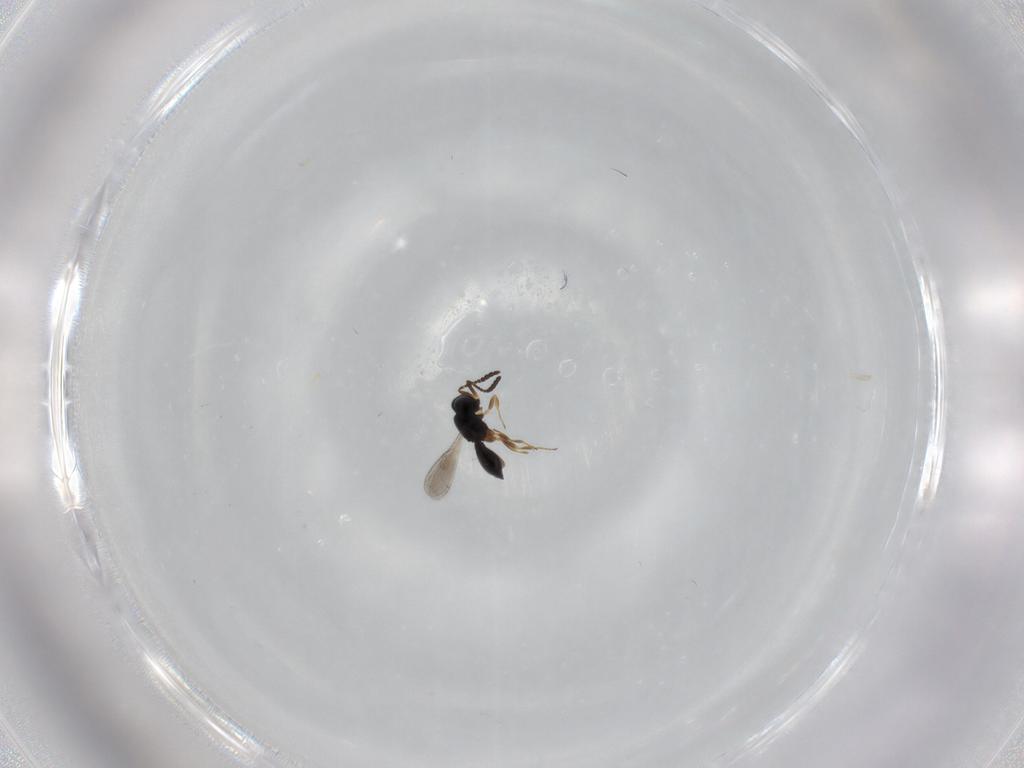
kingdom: Animalia
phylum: Arthropoda
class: Insecta
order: Hymenoptera
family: Scelionidae
